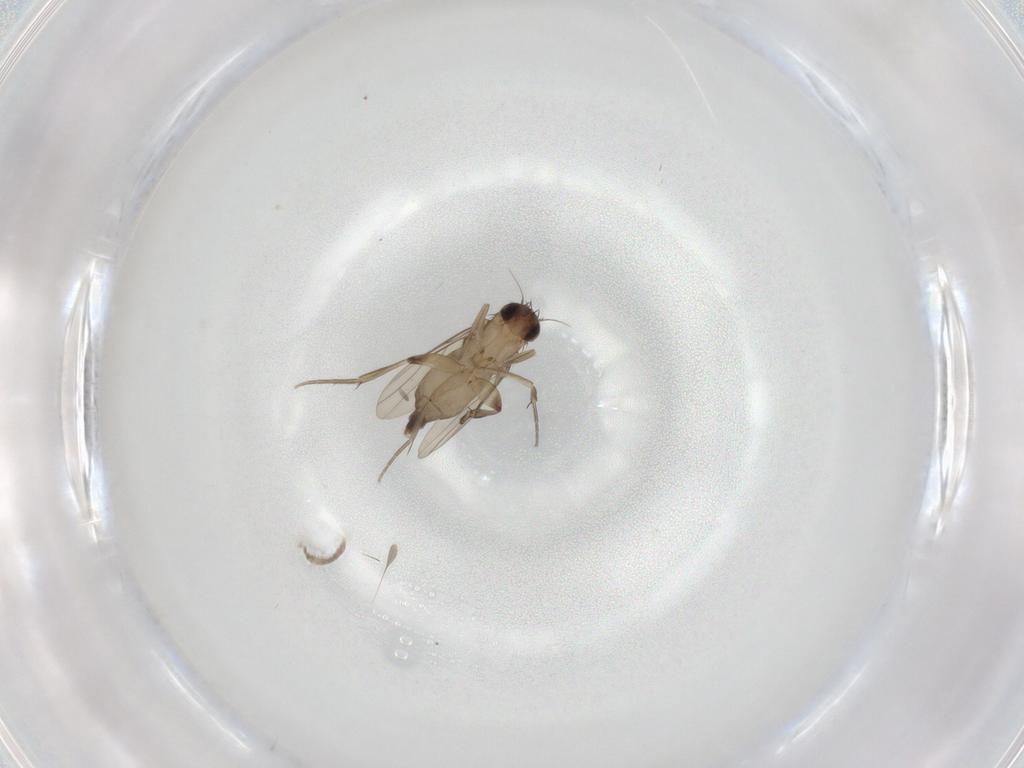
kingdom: Animalia
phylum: Arthropoda
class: Insecta
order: Diptera
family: Phoridae
